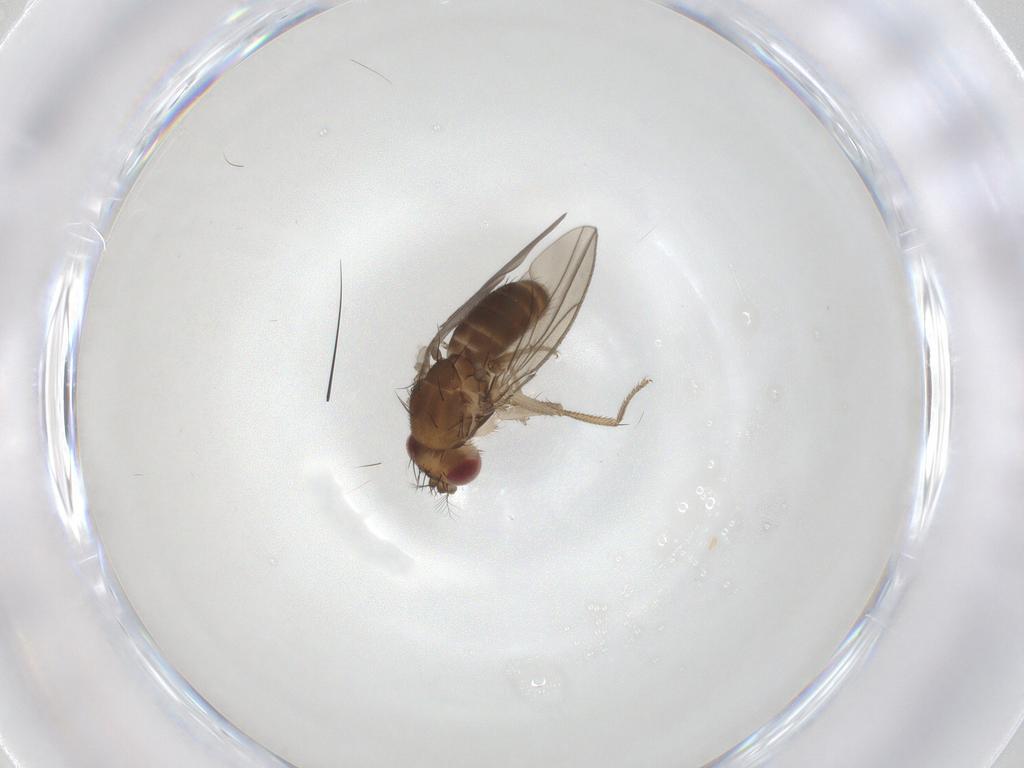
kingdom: Animalia
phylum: Arthropoda
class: Insecta
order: Diptera
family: Drosophilidae
